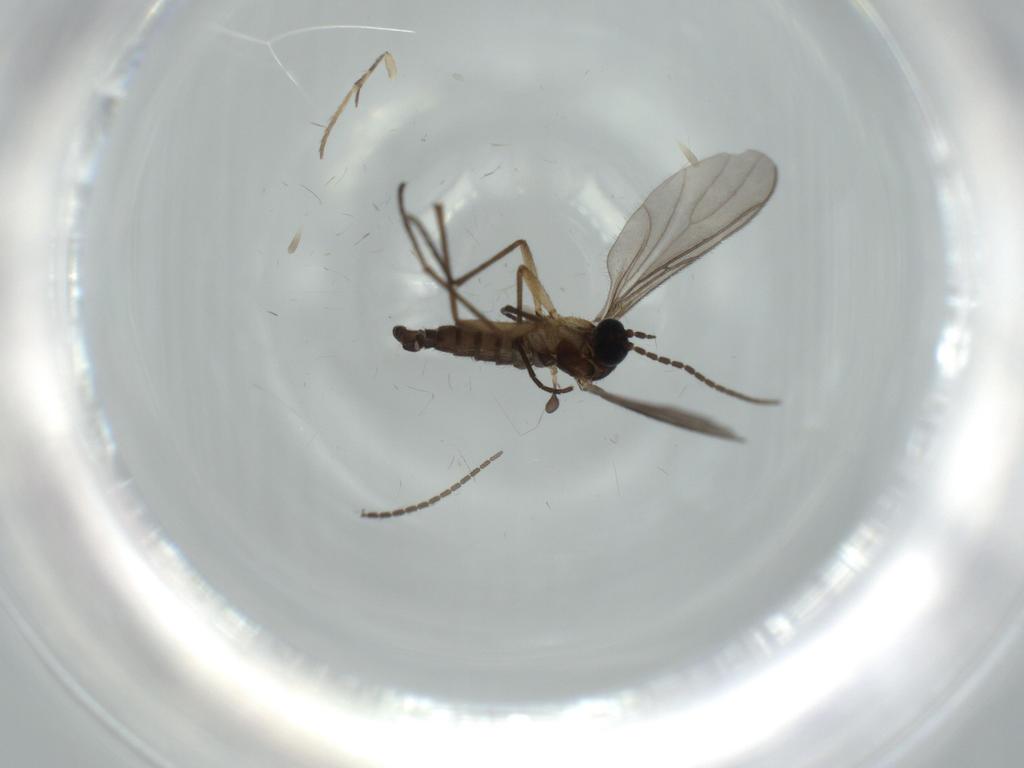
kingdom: Animalia
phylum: Arthropoda
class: Insecta
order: Diptera
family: Sciaridae
